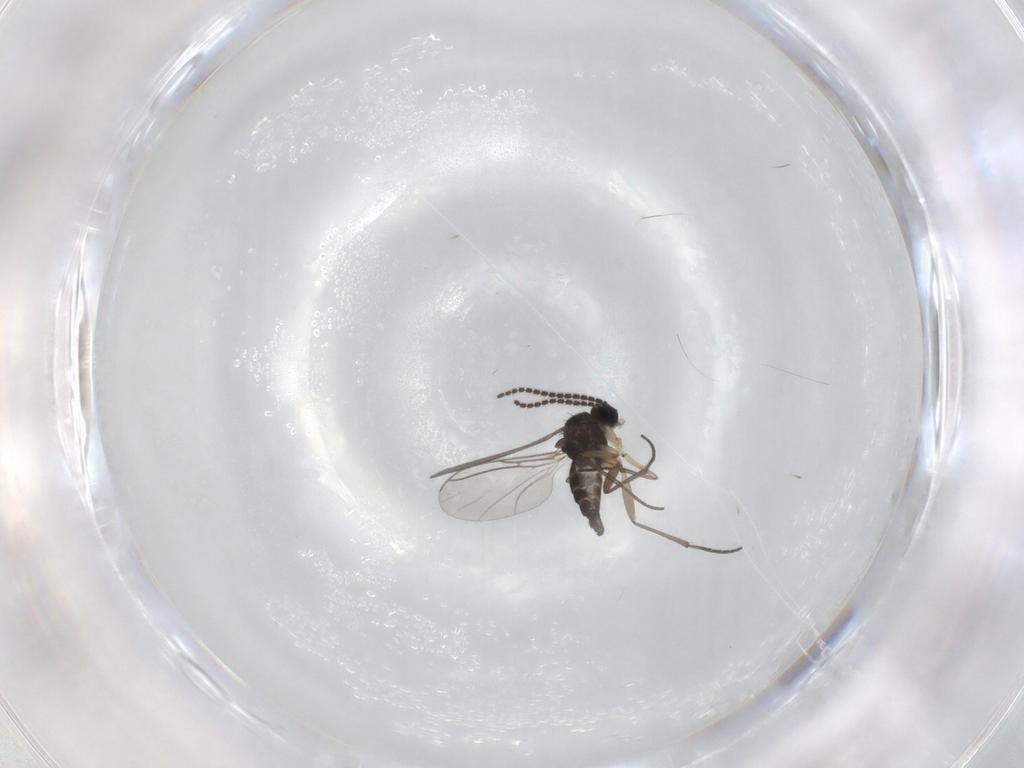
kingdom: Animalia
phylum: Arthropoda
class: Insecta
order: Diptera
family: Sciaridae
